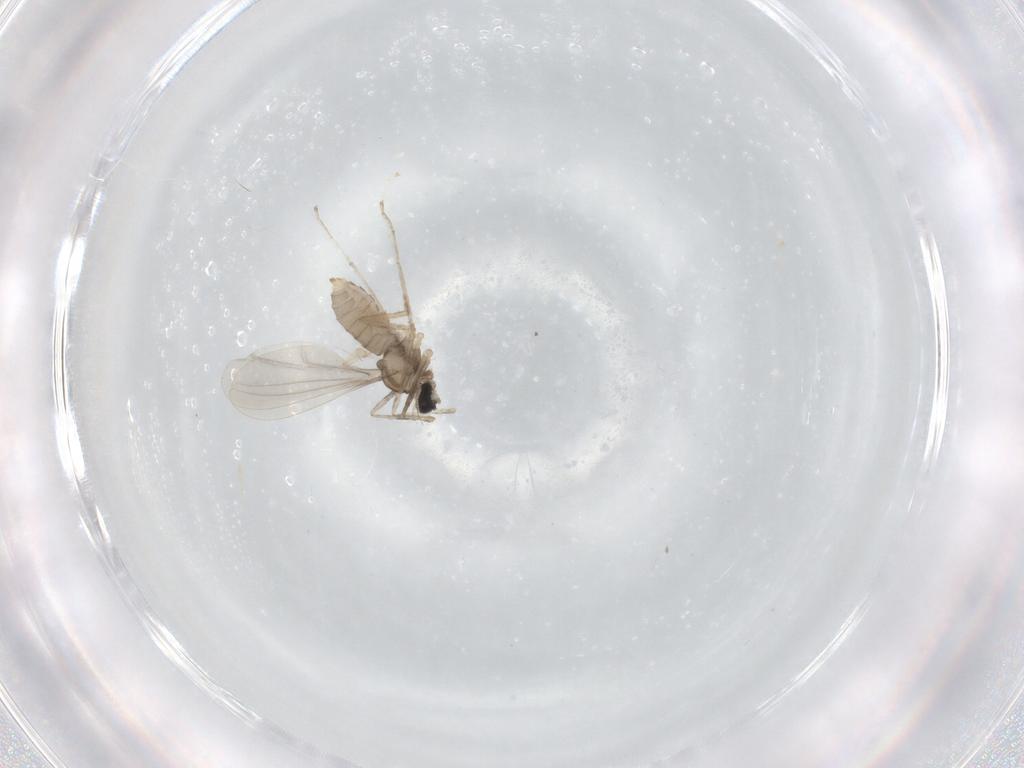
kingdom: Animalia
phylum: Arthropoda
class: Insecta
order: Diptera
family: Cecidomyiidae
